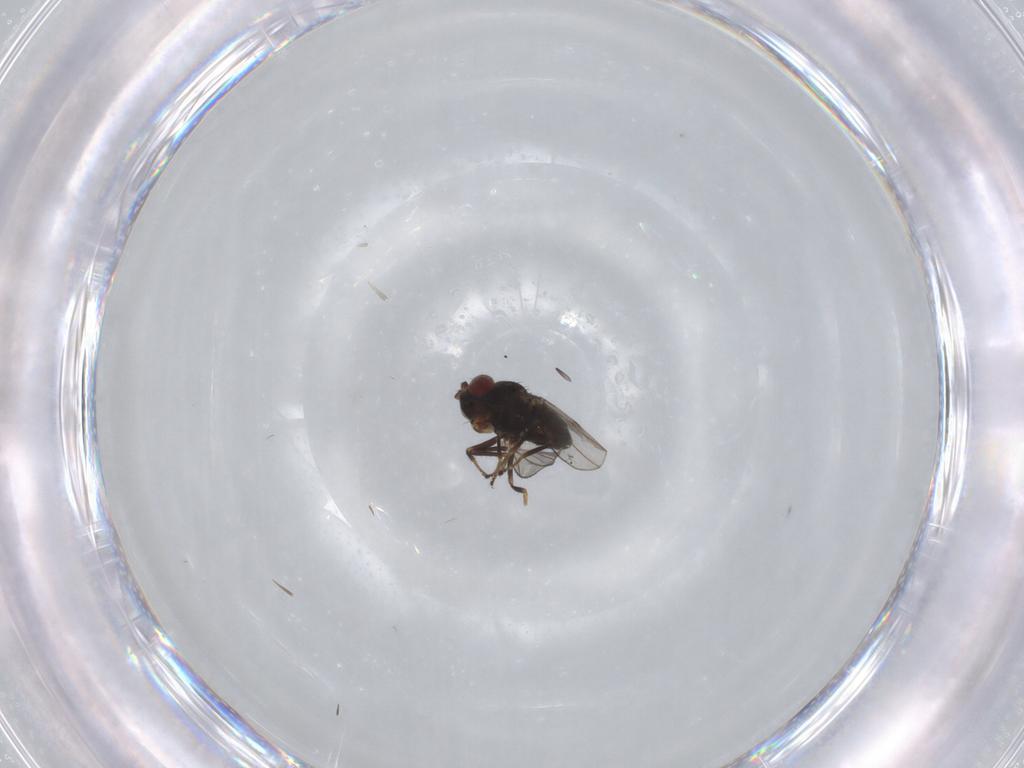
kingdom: Animalia
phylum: Arthropoda
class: Insecta
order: Diptera
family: Ephydridae
